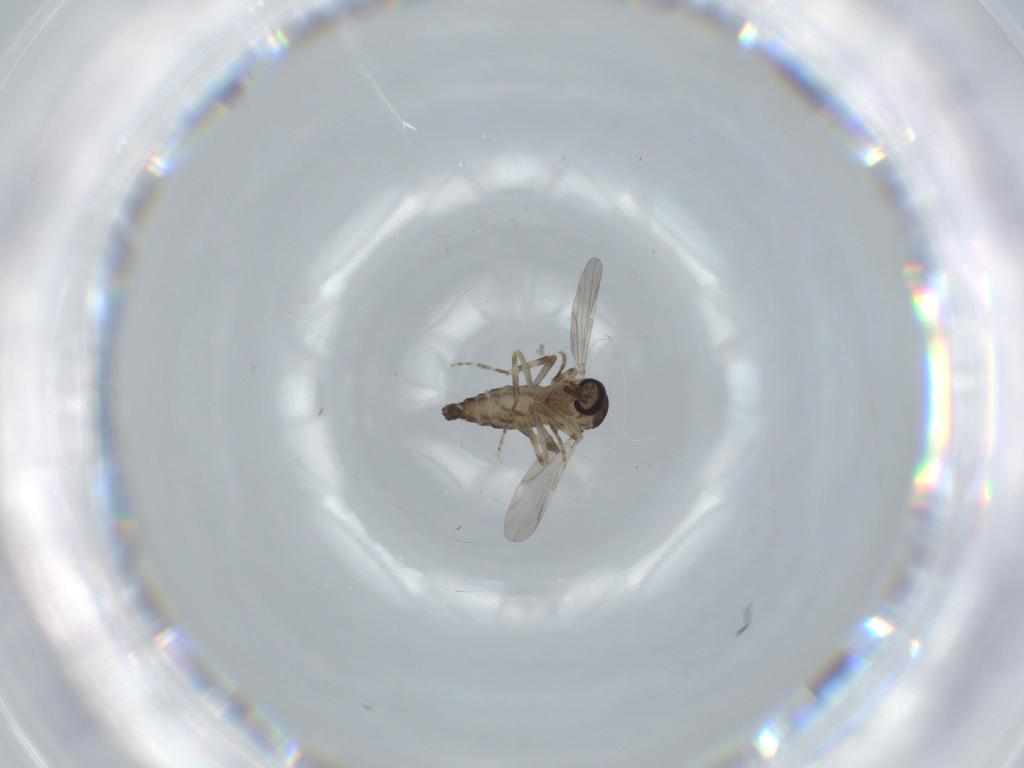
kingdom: Animalia
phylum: Arthropoda
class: Insecta
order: Diptera
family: Ceratopogonidae
